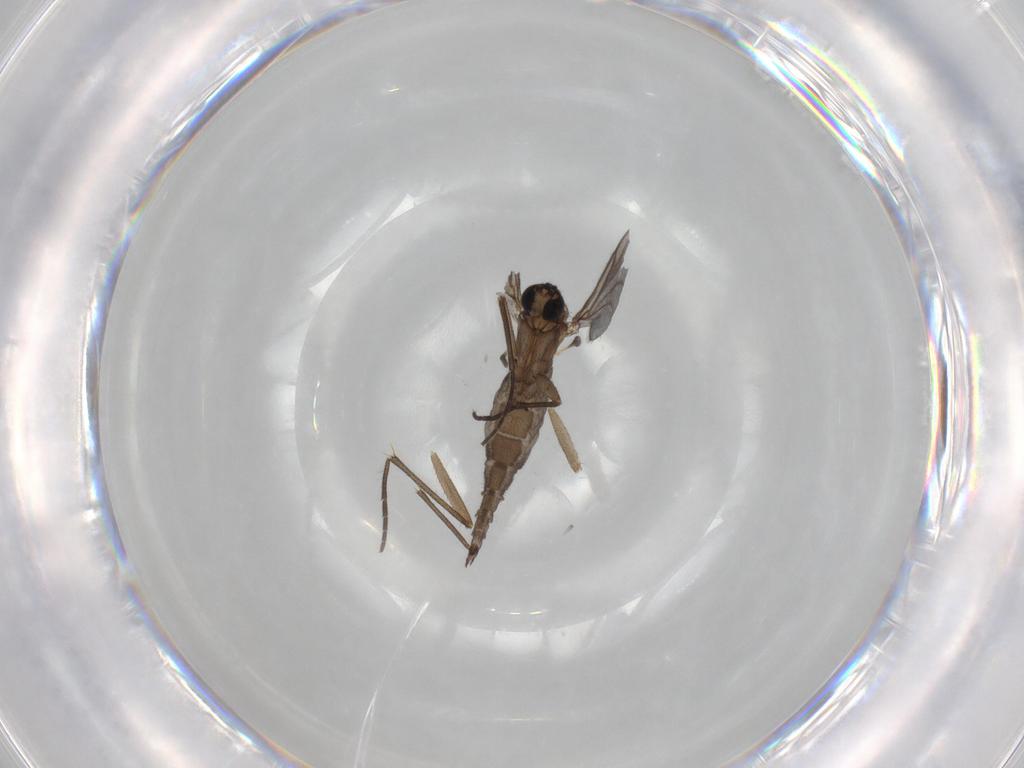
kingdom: Animalia
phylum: Arthropoda
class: Insecta
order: Diptera
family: Sciaridae
